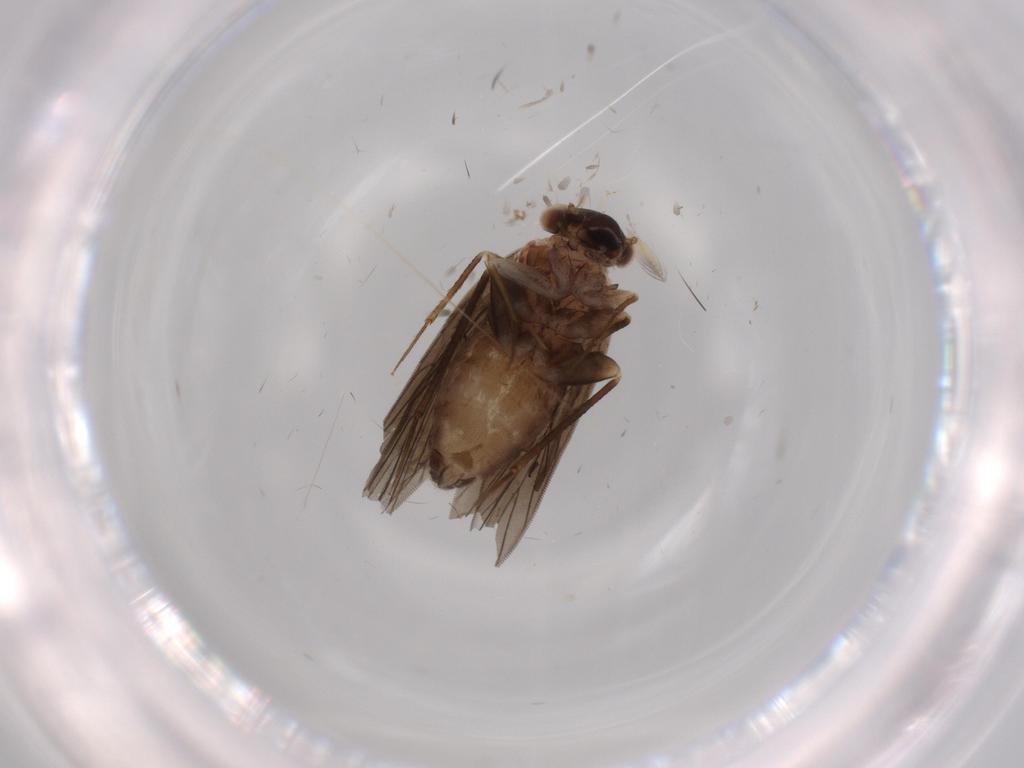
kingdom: Animalia
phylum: Arthropoda
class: Insecta
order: Psocodea
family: Lepidopsocidae
